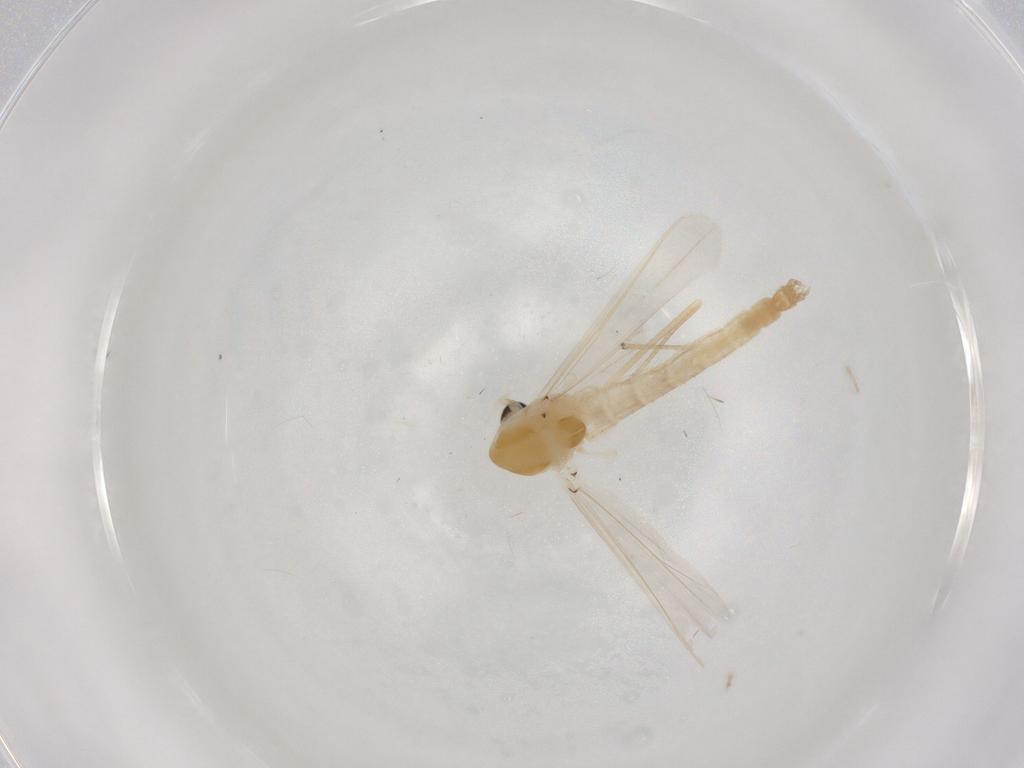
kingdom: Animalia
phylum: Arthropoda
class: Insecta
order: Diptera
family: Chironomidae
